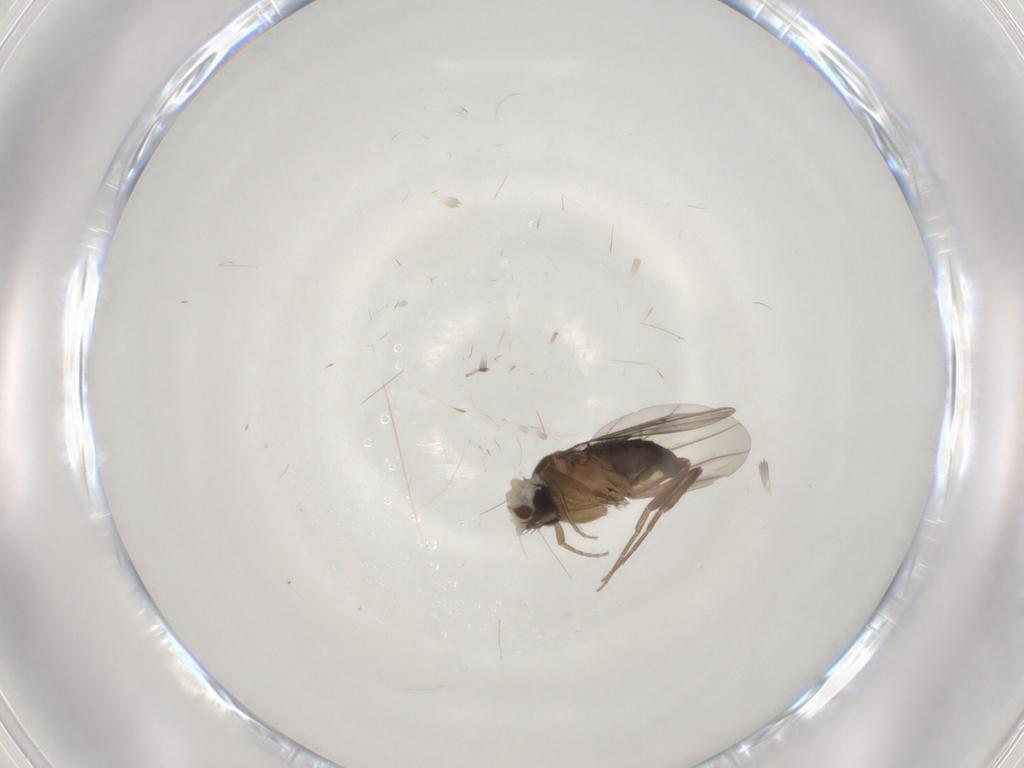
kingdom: Animalia
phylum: Arthropoda
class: Insecta
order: Diptera
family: Phoridae
